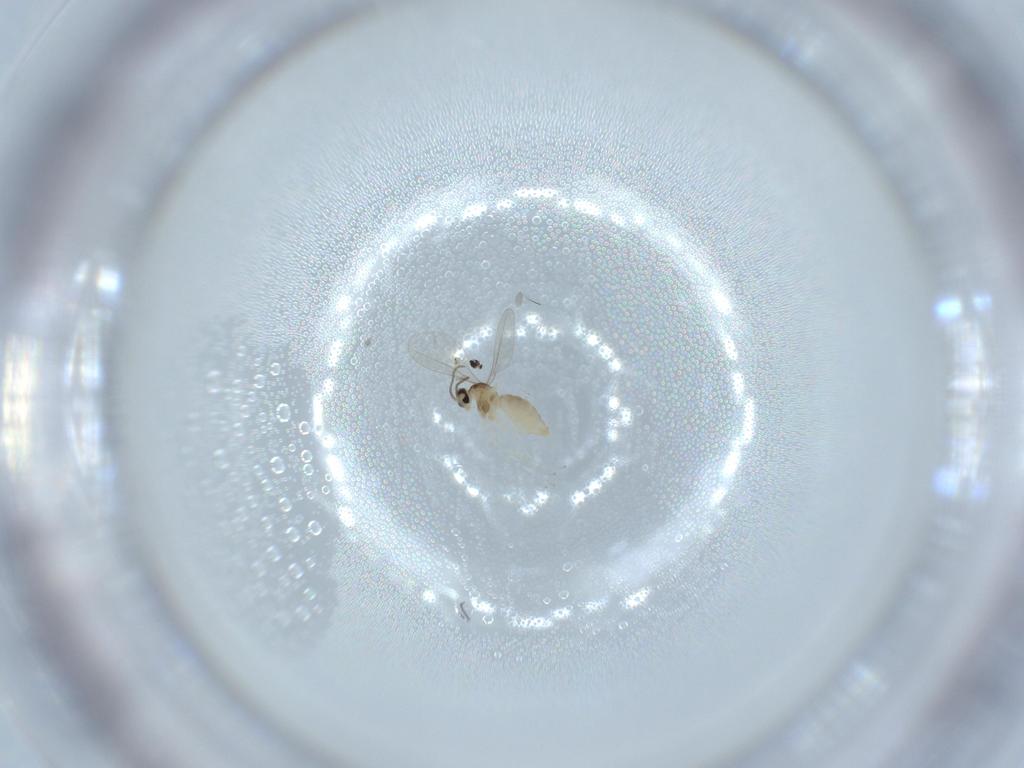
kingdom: Animalia
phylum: Arthropoda
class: Insecta
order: Diptera
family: Cecidomyiidae
